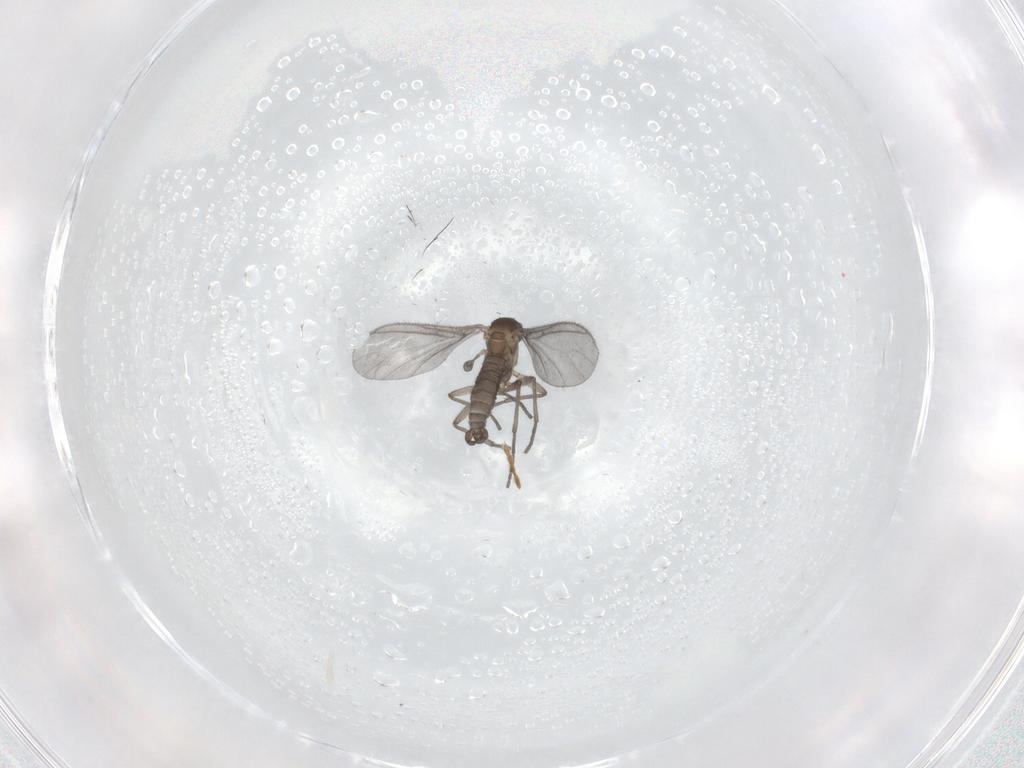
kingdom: Animalia
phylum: Arthropoda
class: Insecta
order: Diptera
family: Sciaridae
